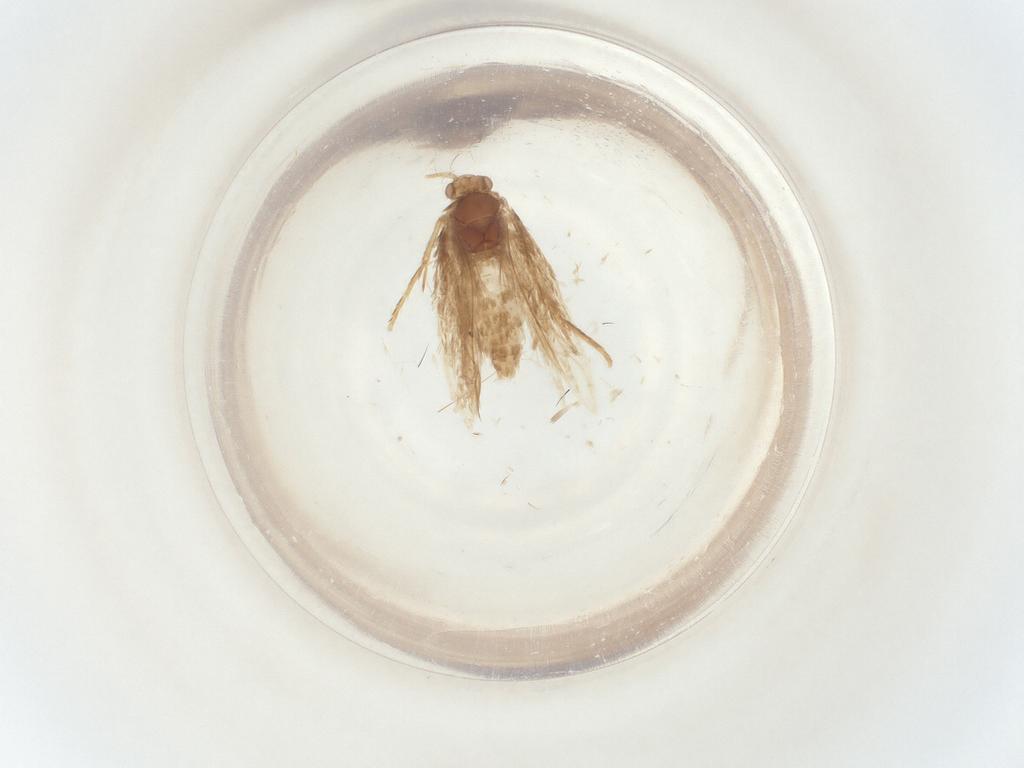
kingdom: Animalia
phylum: Arthropoda
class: Insecta
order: Lepidoptera
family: Nepticulidae
